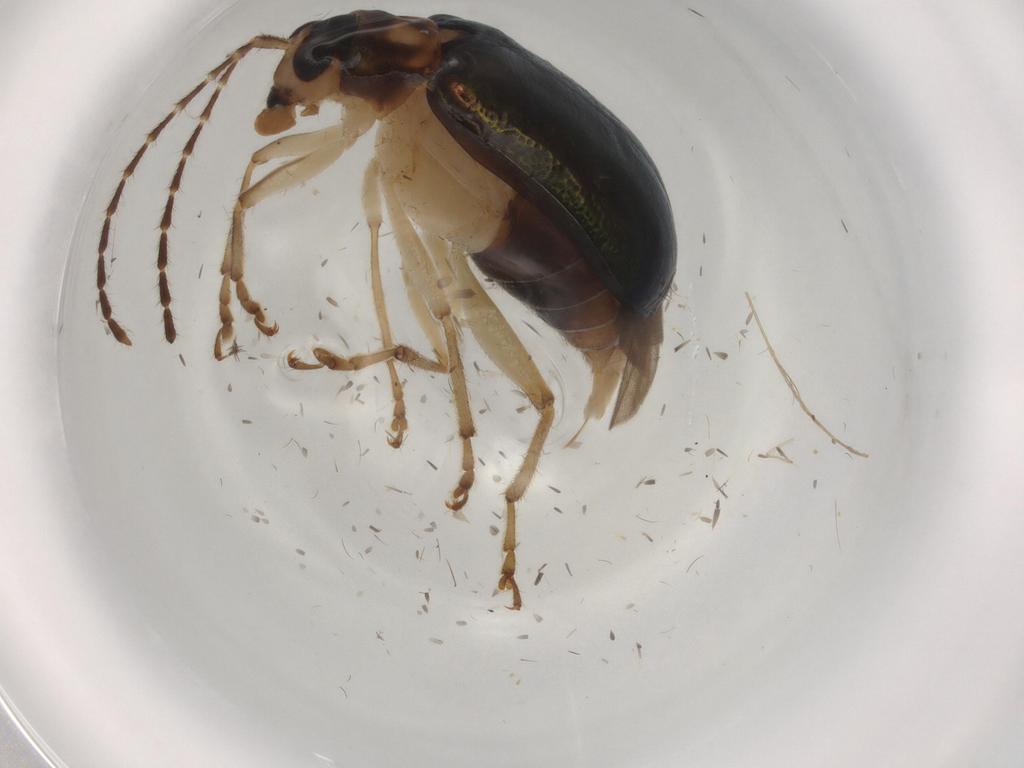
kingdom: Animalia
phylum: Arthropoda
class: Insecta
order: Coleoptera
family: Chrysomelidae
